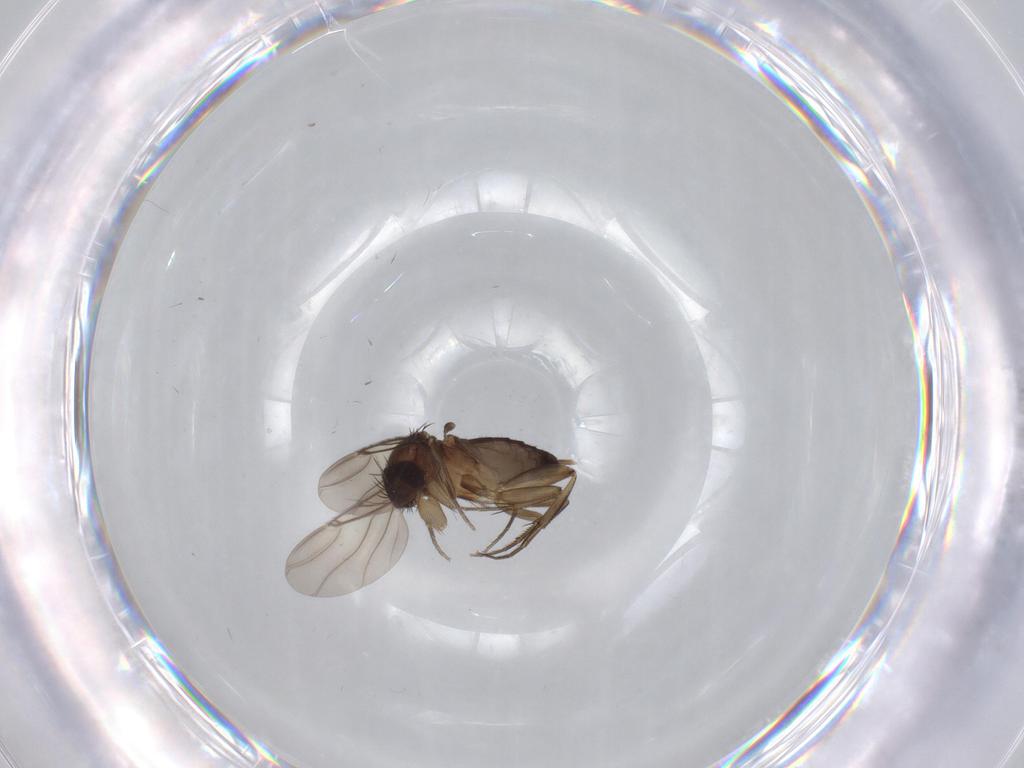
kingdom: Animalia
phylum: Arthropoda
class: Insecta
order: Diptera
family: Phoridae
